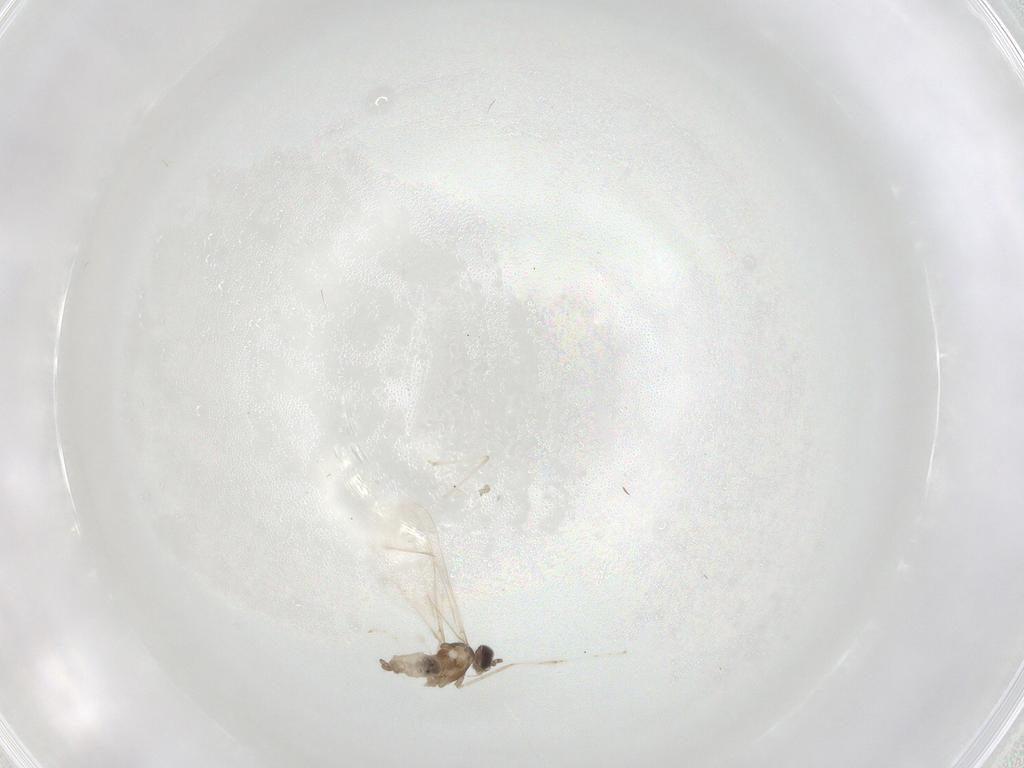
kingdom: Animalia
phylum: Arthropoda
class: Insecta
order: Diptera
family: Cecidomyiidae
